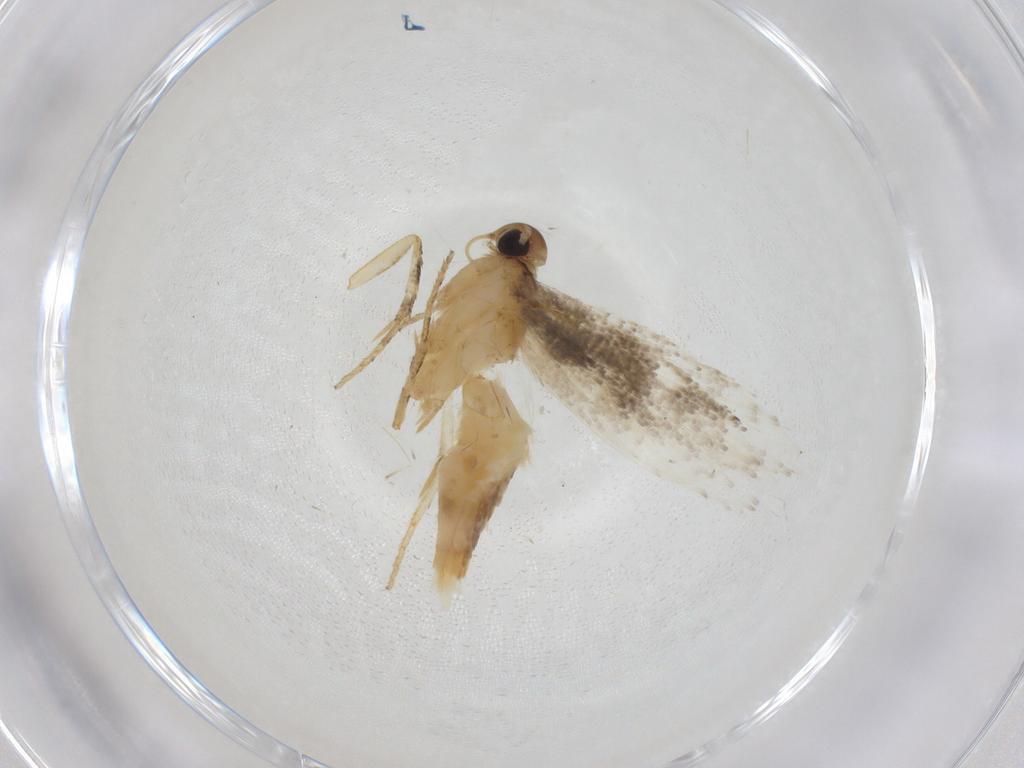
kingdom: Animalia
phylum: Arthropoda
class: Insecta
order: Lepidoptera
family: Gelechiidae
